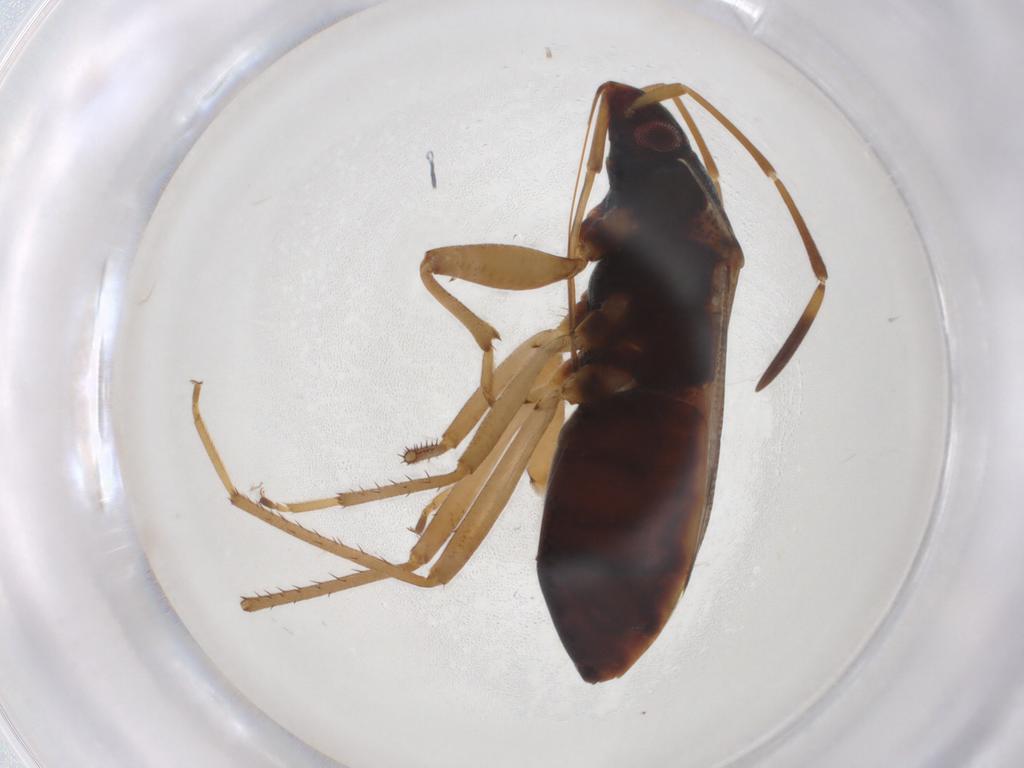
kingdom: Animalia
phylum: Arthropoda
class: Insecta
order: Hemiptera
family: Rhyparochromidae
